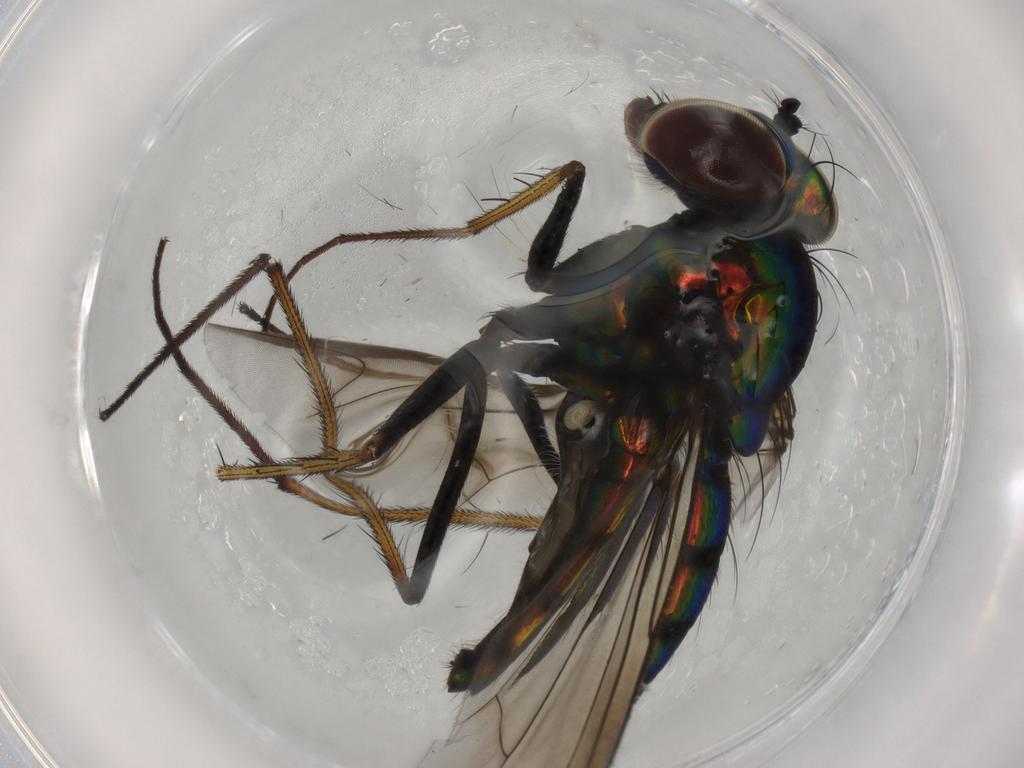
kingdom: Animalia
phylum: Arthropoda
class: Insecta
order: Diptera
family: Dolichopodidae
